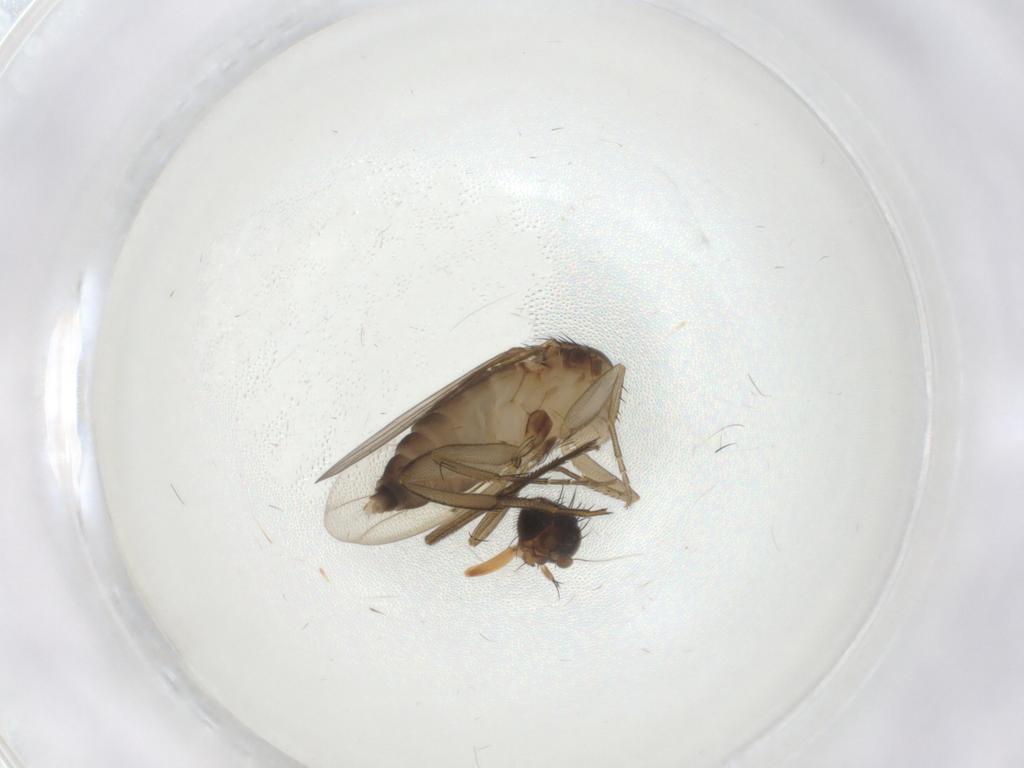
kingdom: Animalia
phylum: Arthropoda
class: Insecta
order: Diptera
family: Phoridae
